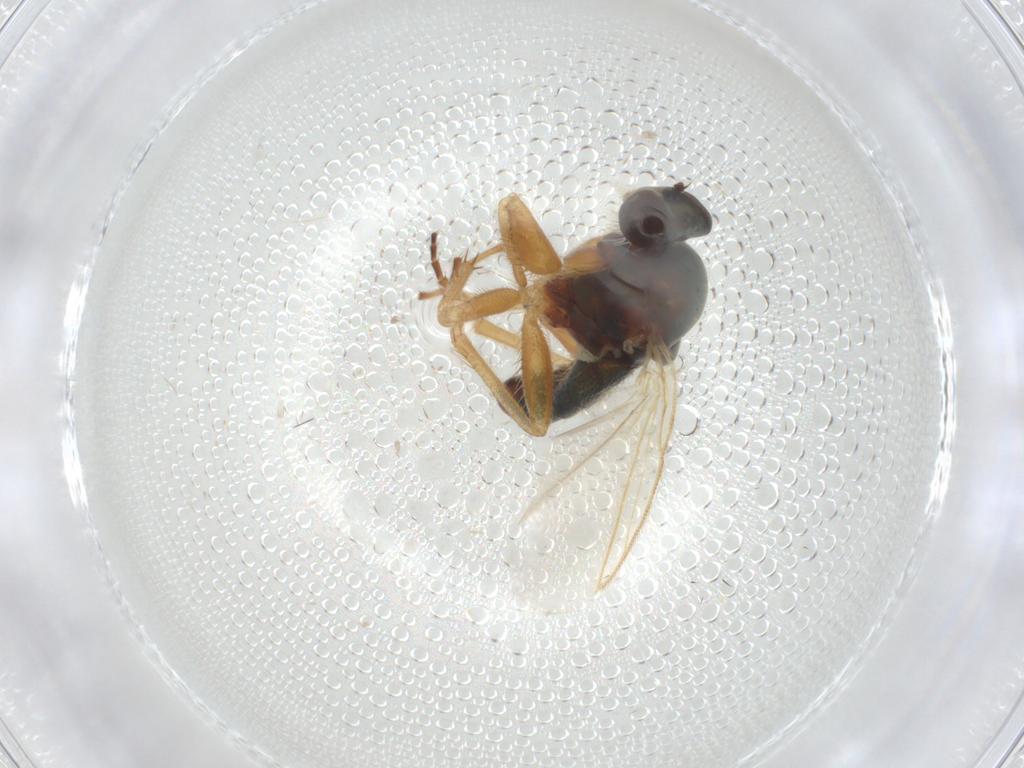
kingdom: Animalia
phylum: Arthropoda
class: Insecta
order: Diptera
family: Dolichopodidae
